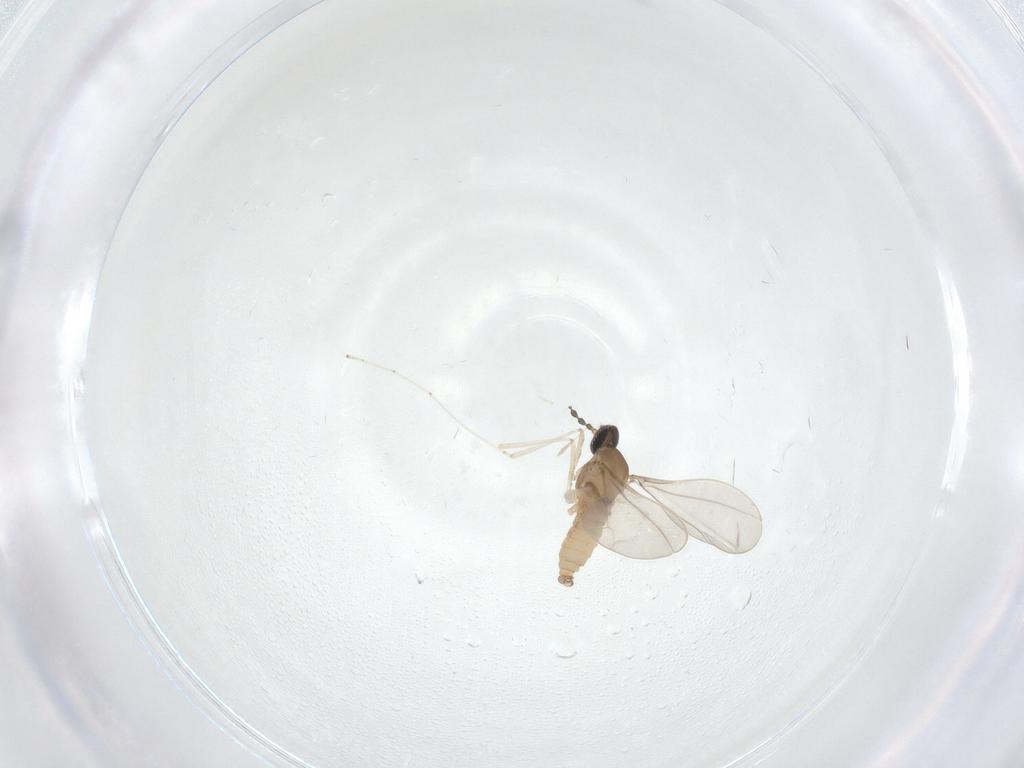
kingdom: Animalia
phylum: Arthropoda
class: Insecta
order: Diptera
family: Cecidomyiidae
